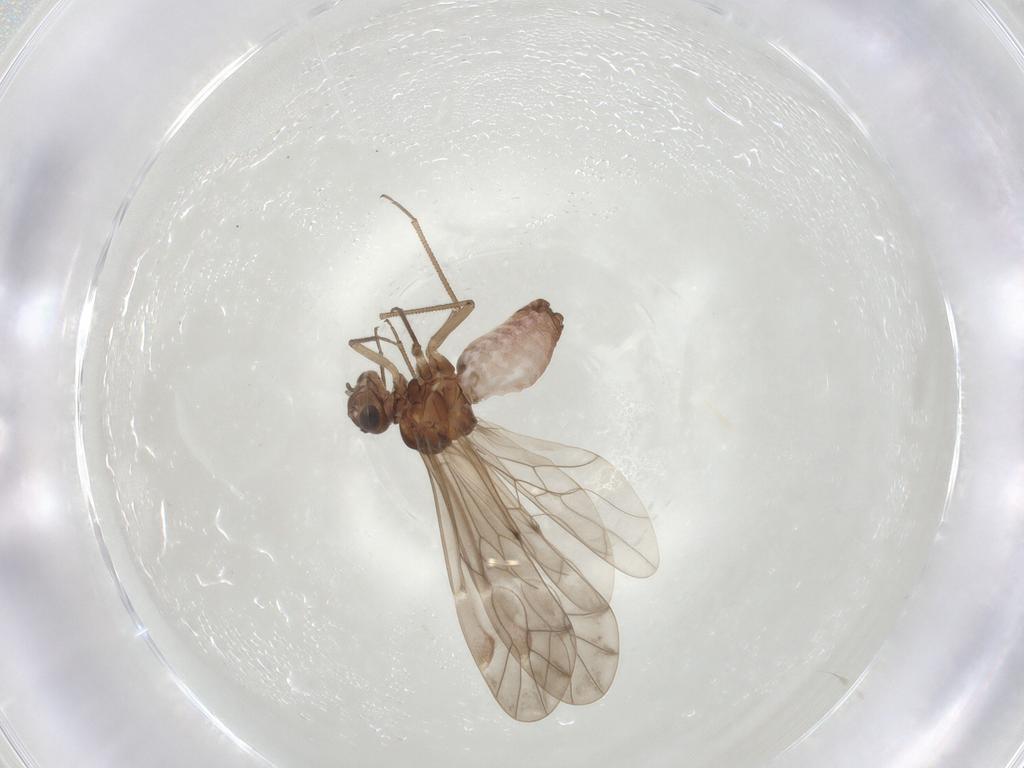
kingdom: Animalia
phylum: Arthropoda
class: Insecta
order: Psocodea
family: Peripsocidae
